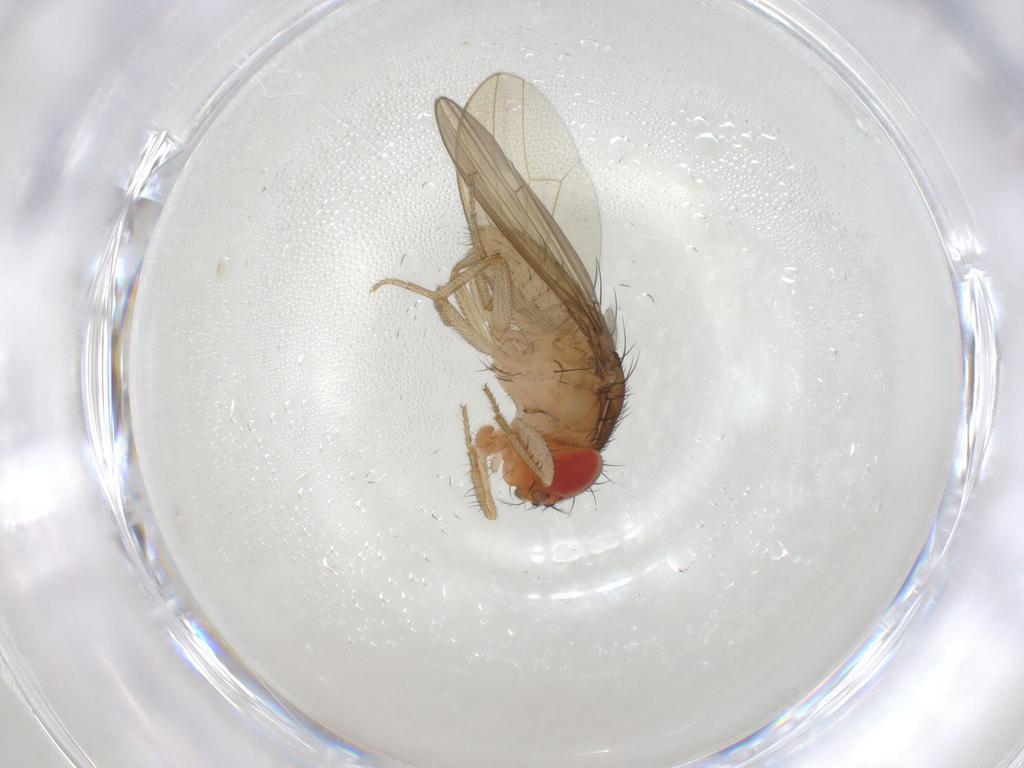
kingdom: Animalia
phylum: Arthropoda
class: Insecta
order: Diptera
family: Drosophilidae
